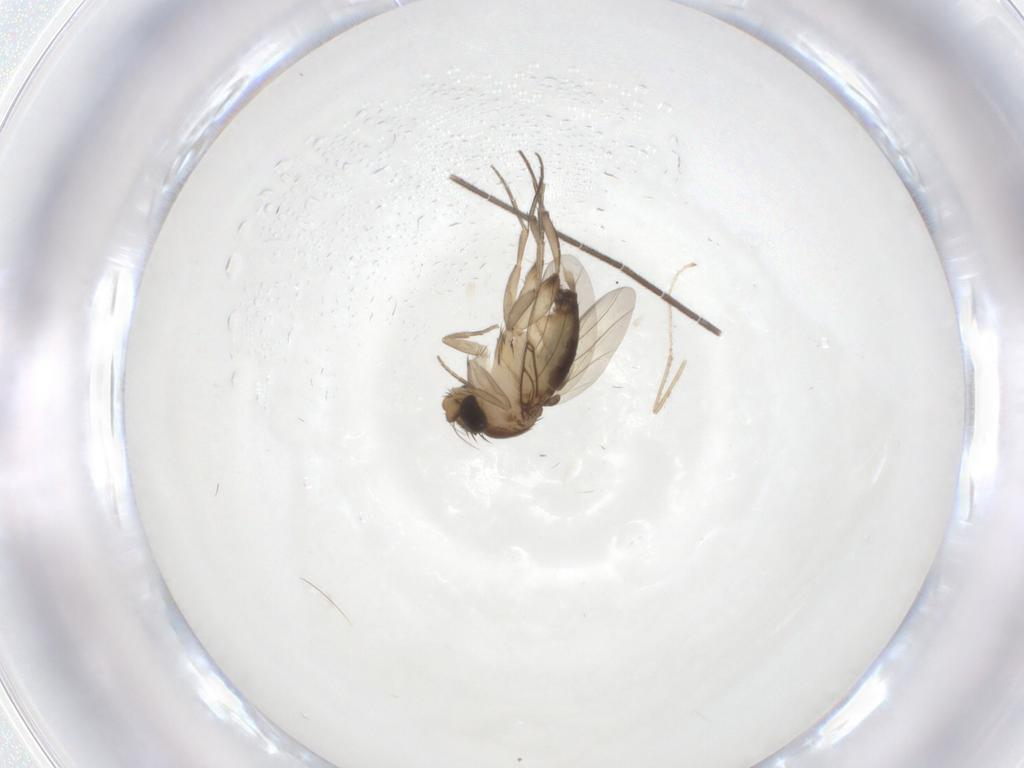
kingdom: Animalia
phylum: Arthropoda
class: Insecta
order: Diptera
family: Phoridae
